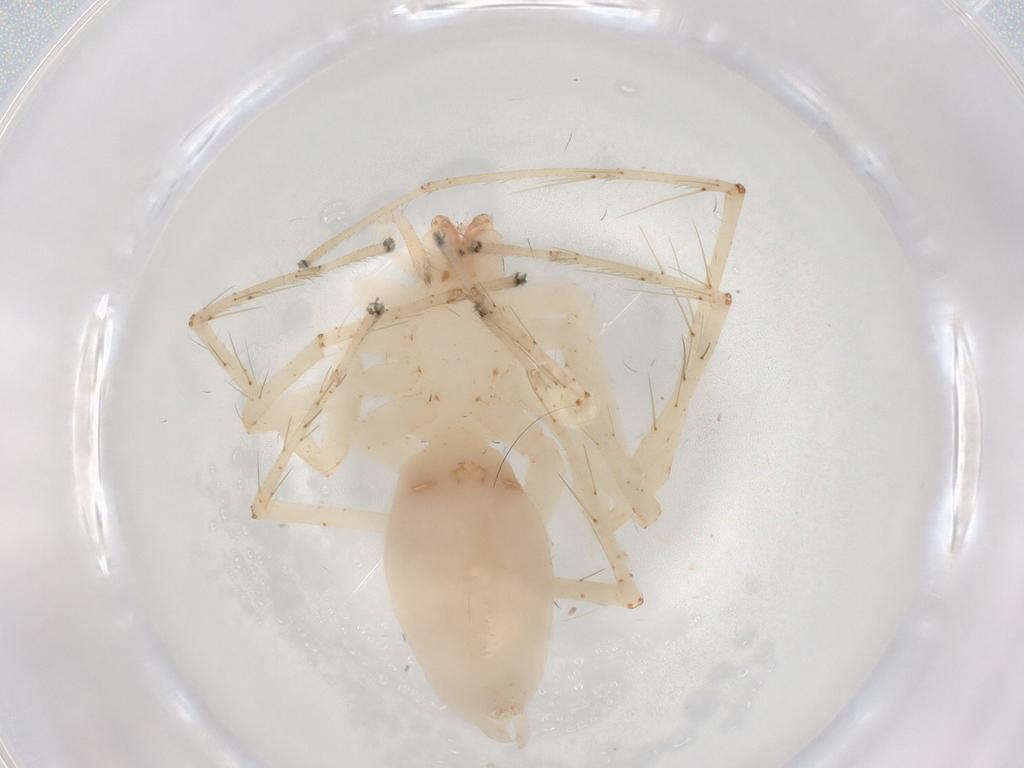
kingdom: Animalia
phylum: Arthropoda
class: Arachnida
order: Araneae
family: Anyphaenidae
